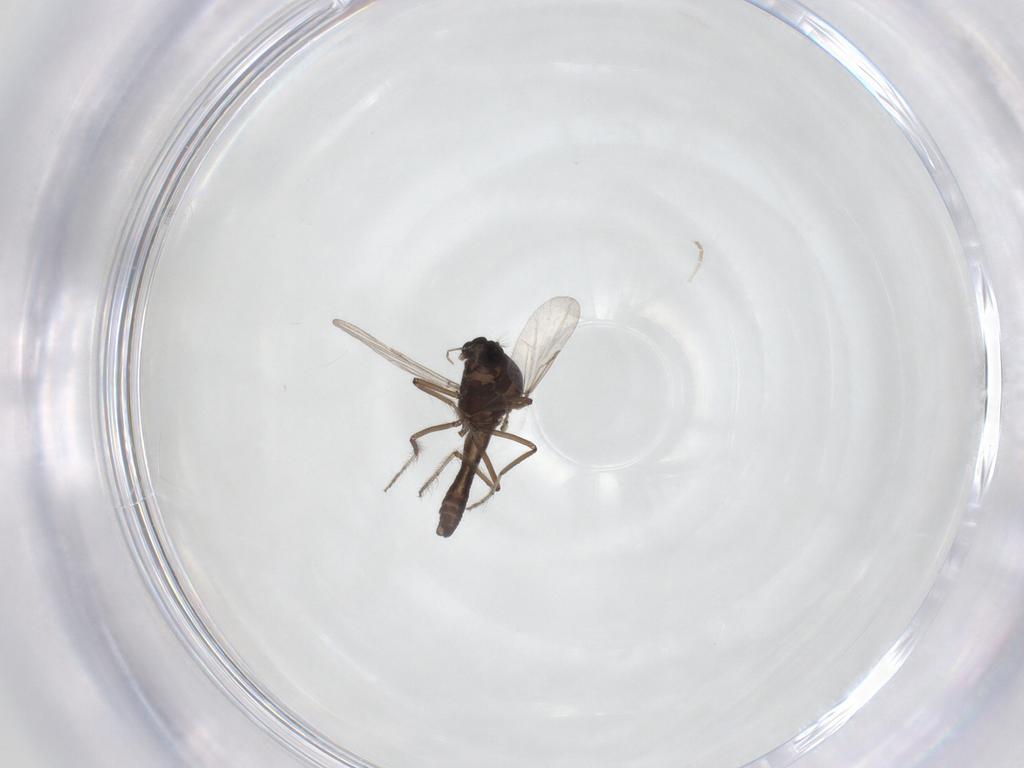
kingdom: Animalia
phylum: Arthropoda
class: Insecta
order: Diptera
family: Ceratopogonidae
